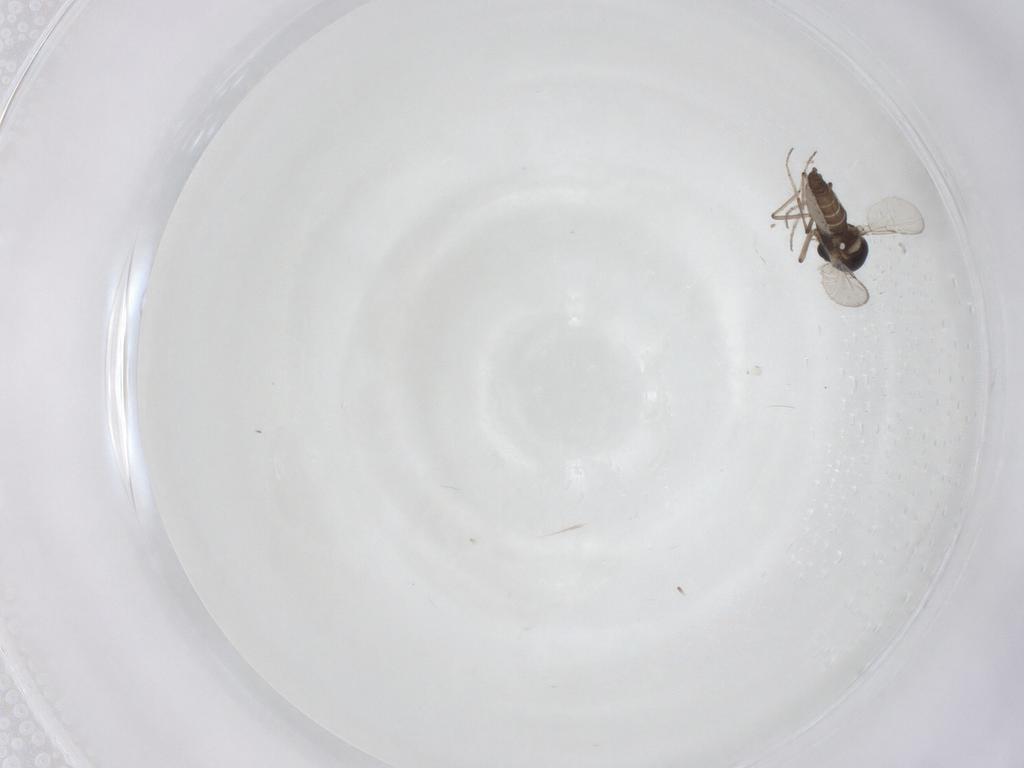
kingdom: Animalia
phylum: Arthropoda
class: Insecta
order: Diptera
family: Ceratopogonidae
